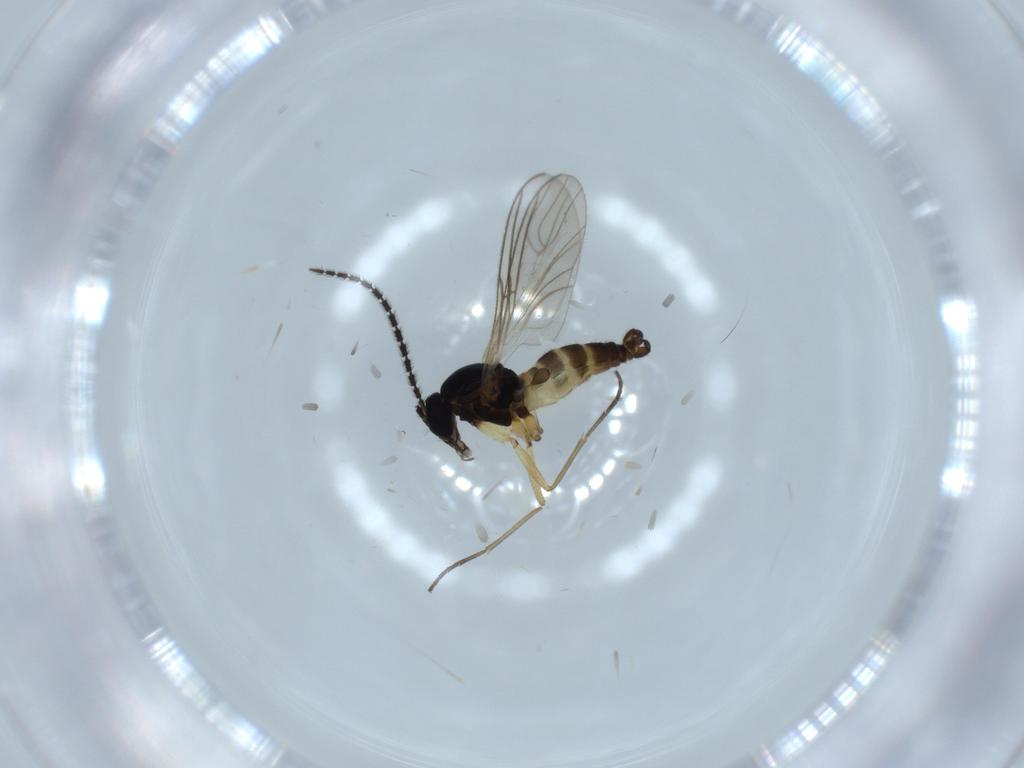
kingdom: Animalia
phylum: Arthropoda
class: Insecta
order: Diptera
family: Sciaridae
